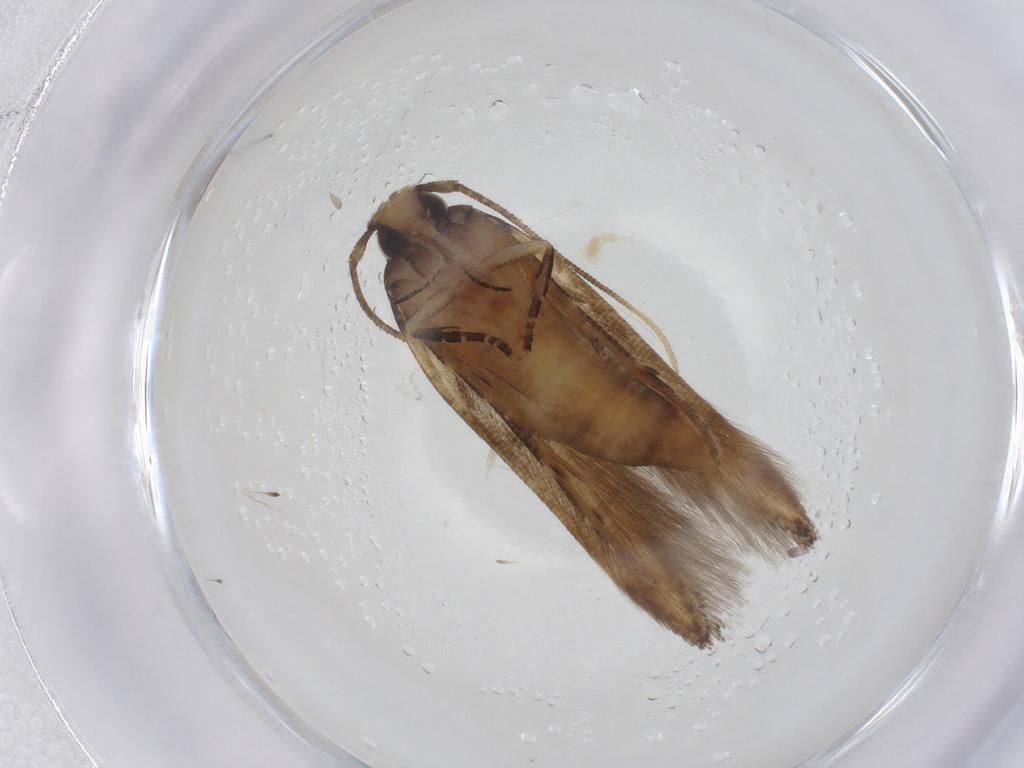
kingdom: Animalia
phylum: Arthropoda
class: Insecta
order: Lepidoptera
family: Cosmopterigidae
